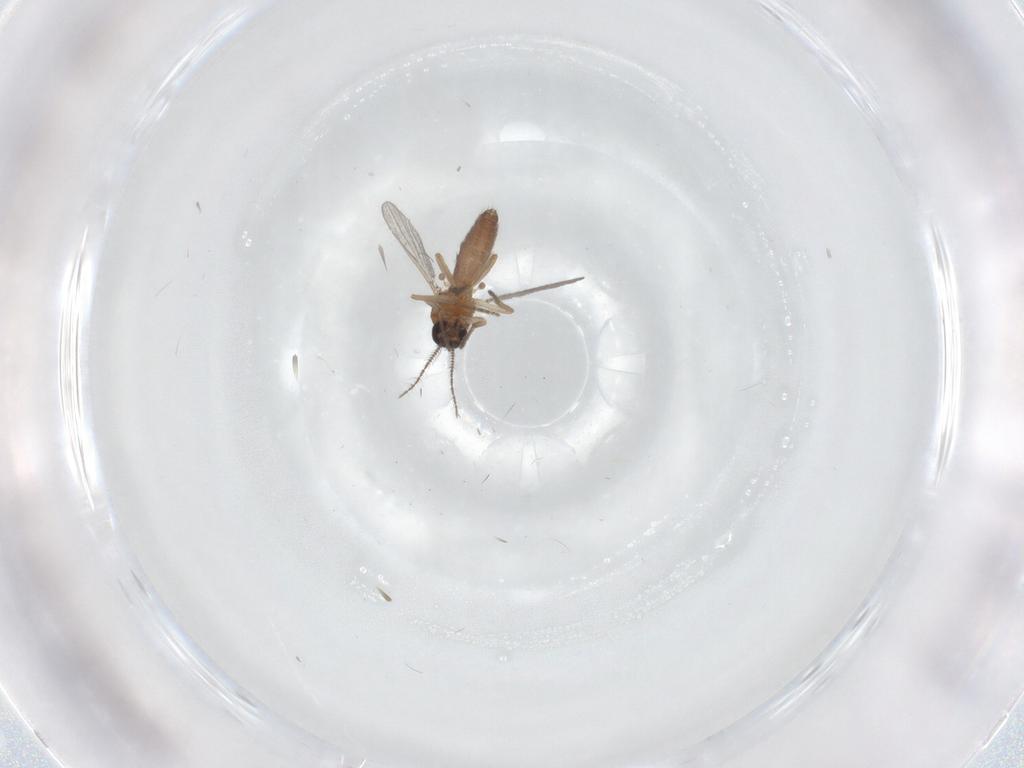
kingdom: Animalia
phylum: Arthropoda
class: Insecta
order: Diptera
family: Ceratopogonidae
